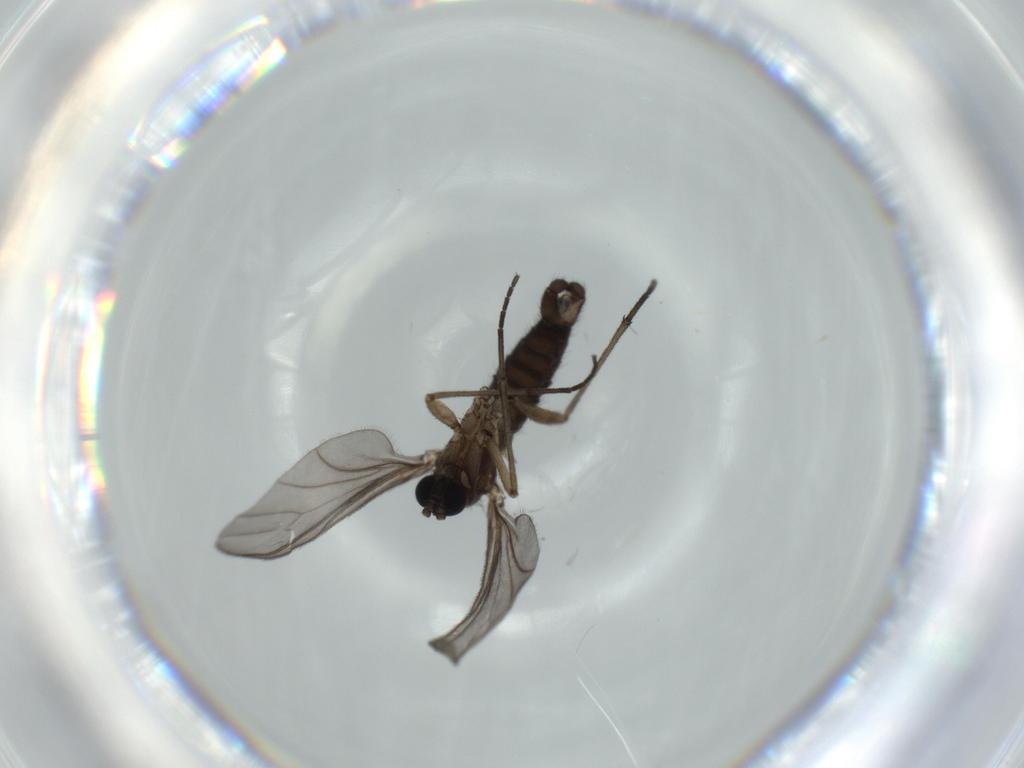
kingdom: Animalia
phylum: Arthropoda
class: Insecta
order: Diptera
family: Sciaridae
